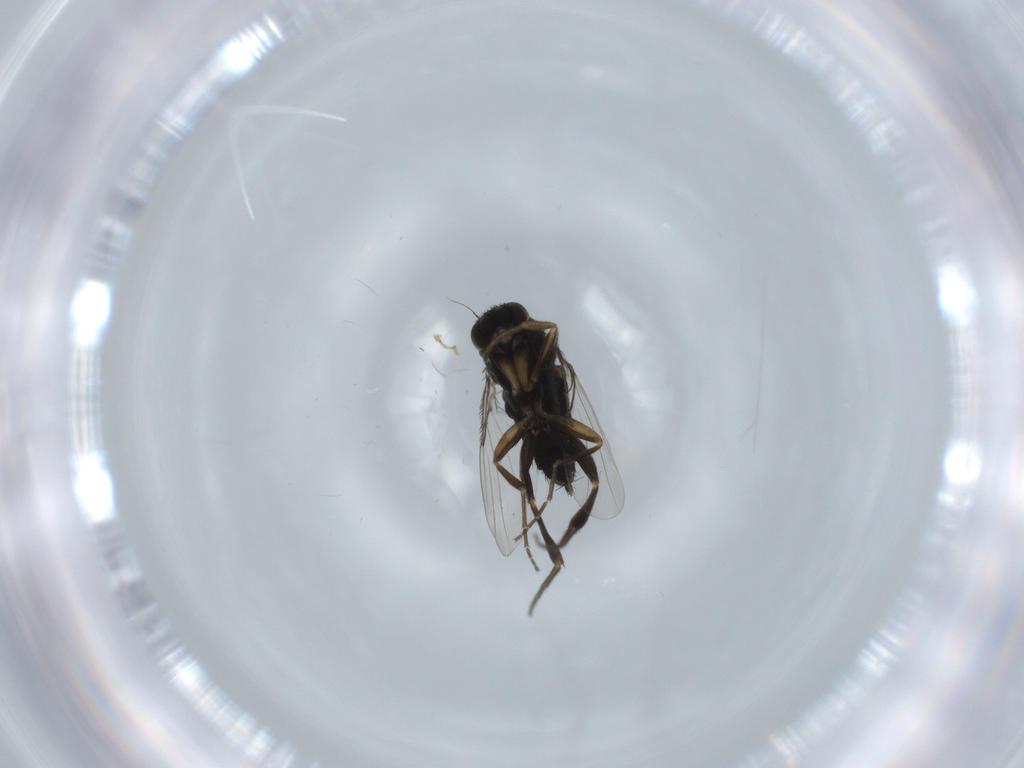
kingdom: Animalia
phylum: Arthropoda
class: Insecta
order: Diptera
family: Phoridae
